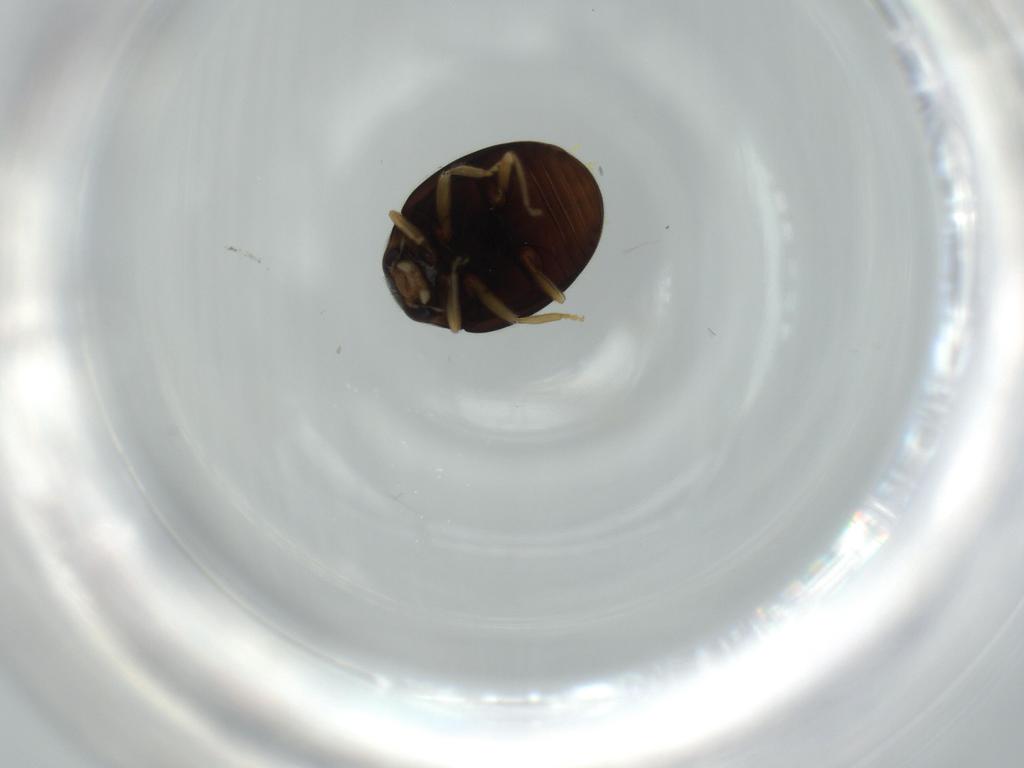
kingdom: Animalia
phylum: Arthropoda
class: Insecta
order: Coleoptera
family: Coccinellidae
